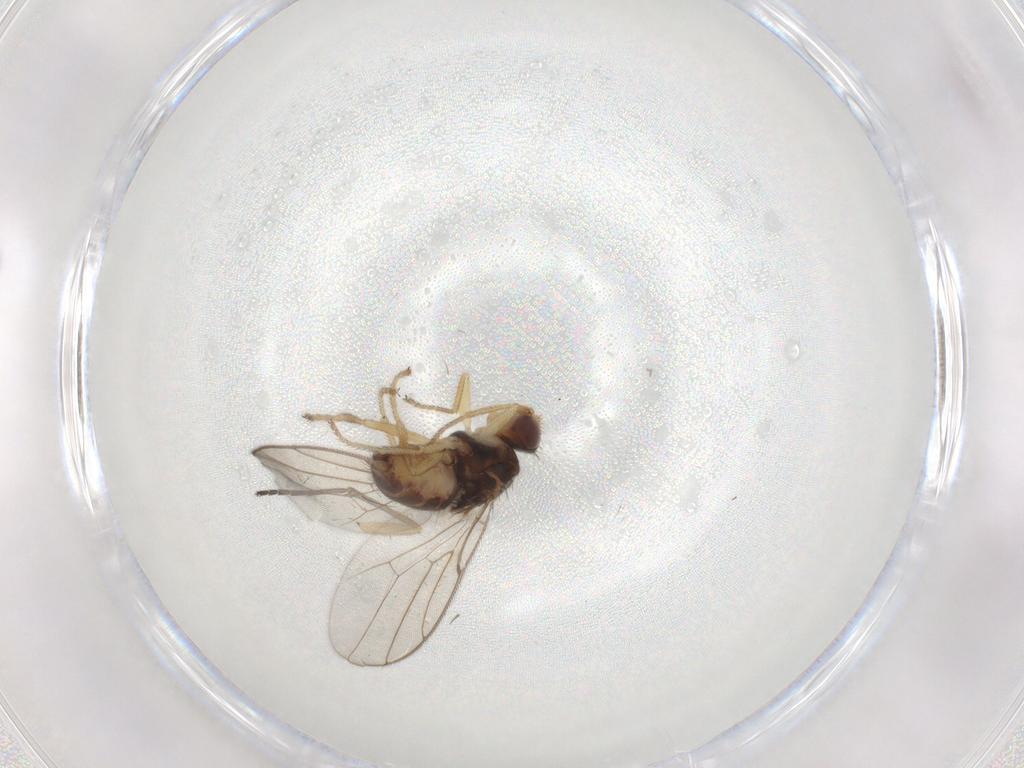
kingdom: Animalia
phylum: Arthropoda
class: Insecta
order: Diptera
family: Chloropidae
